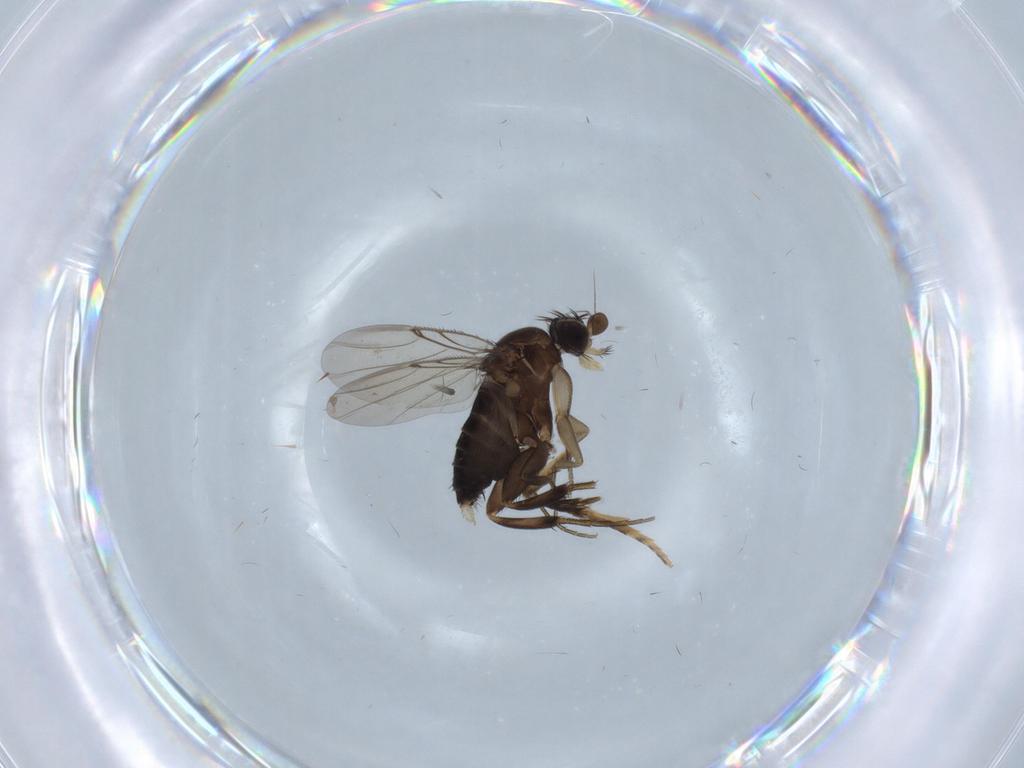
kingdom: Animalia
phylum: Arthropoda
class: Insecta
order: Diptera
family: Phoridae
